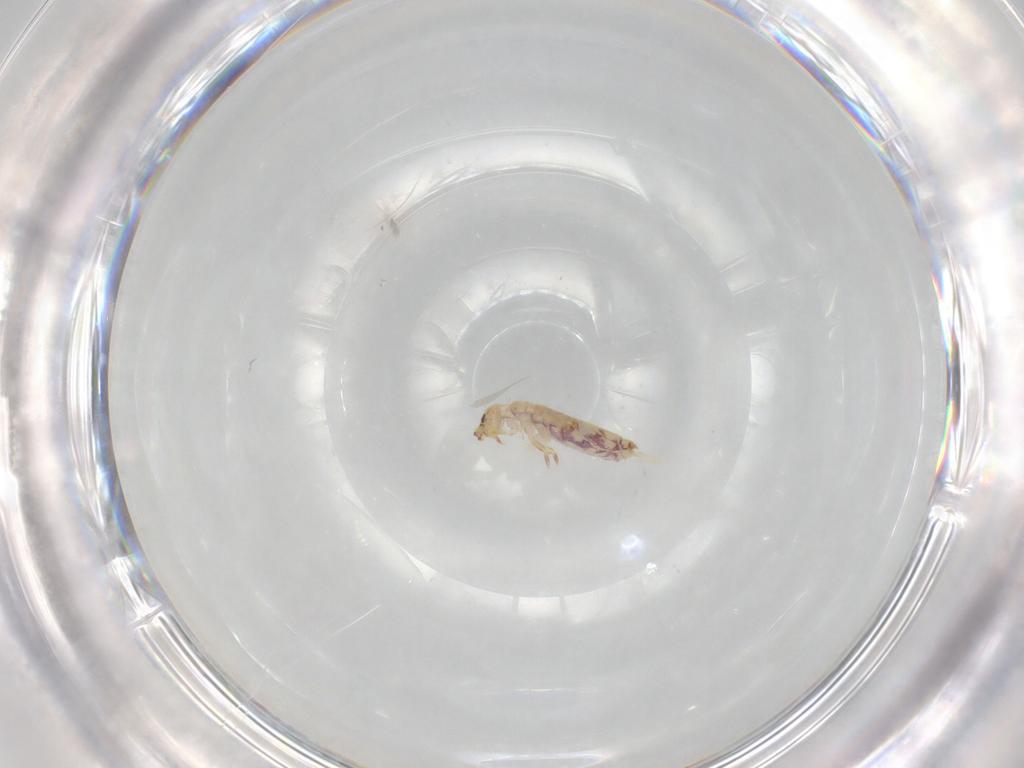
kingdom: Animalia
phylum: Arthropoda
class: Collembola
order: Entomobryomorpha
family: Entomobryidae
